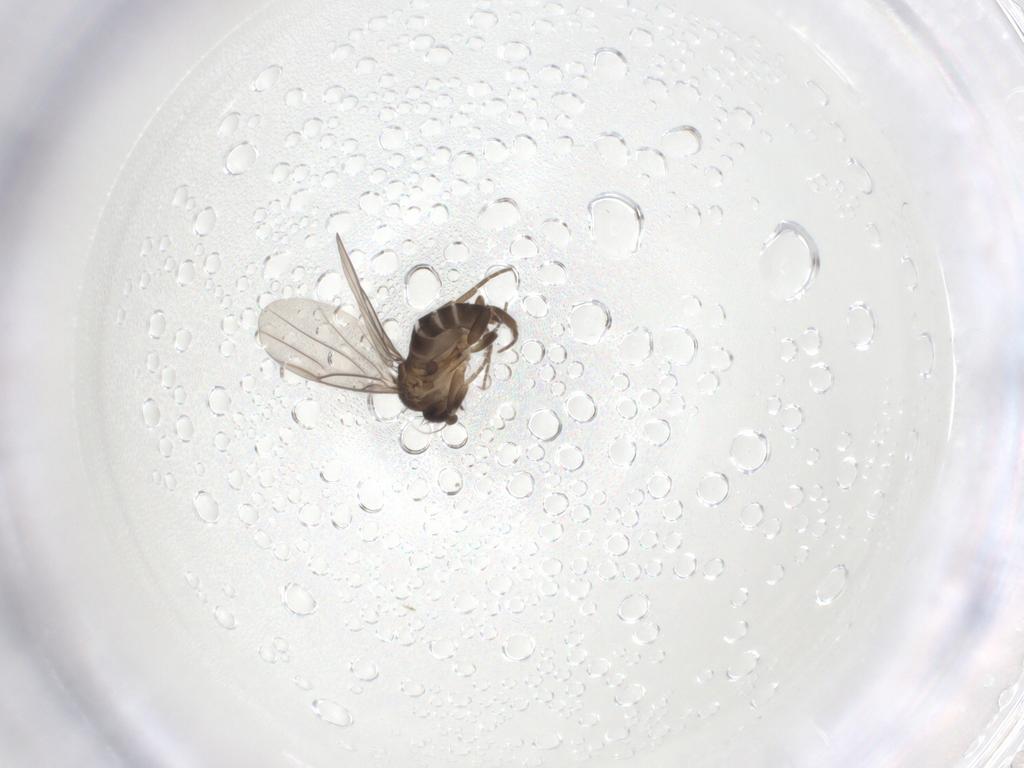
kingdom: Animalia
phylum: Arthropoda
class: Insecta
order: Diptera
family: Phoridae
